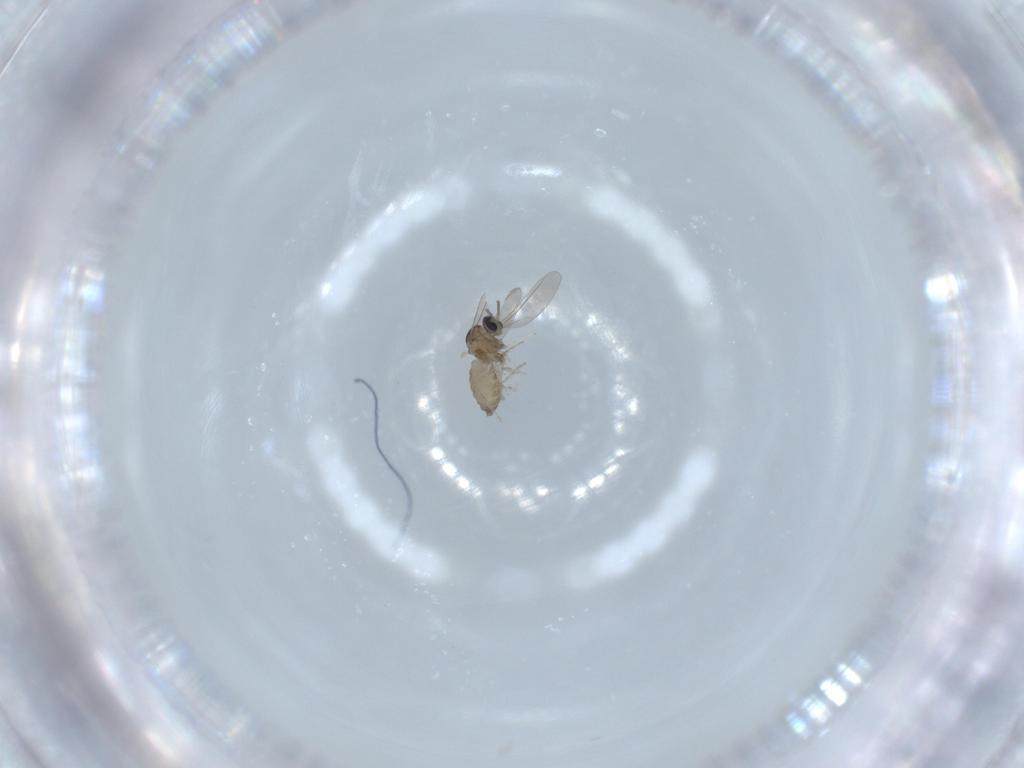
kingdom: Animalia
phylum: Arthropoda
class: Insecta
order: Diptera
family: Cecidomyiidae
